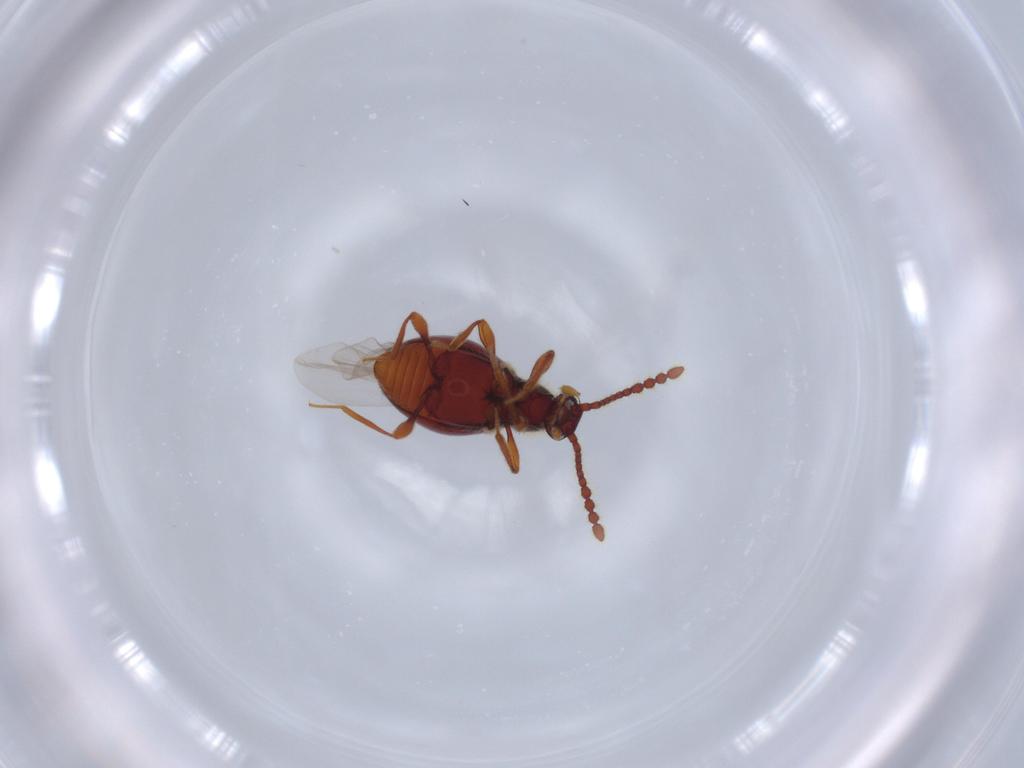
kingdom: Animalia
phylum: Arthropoda
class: Insecta
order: Coleoptera
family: Staphylinidae
